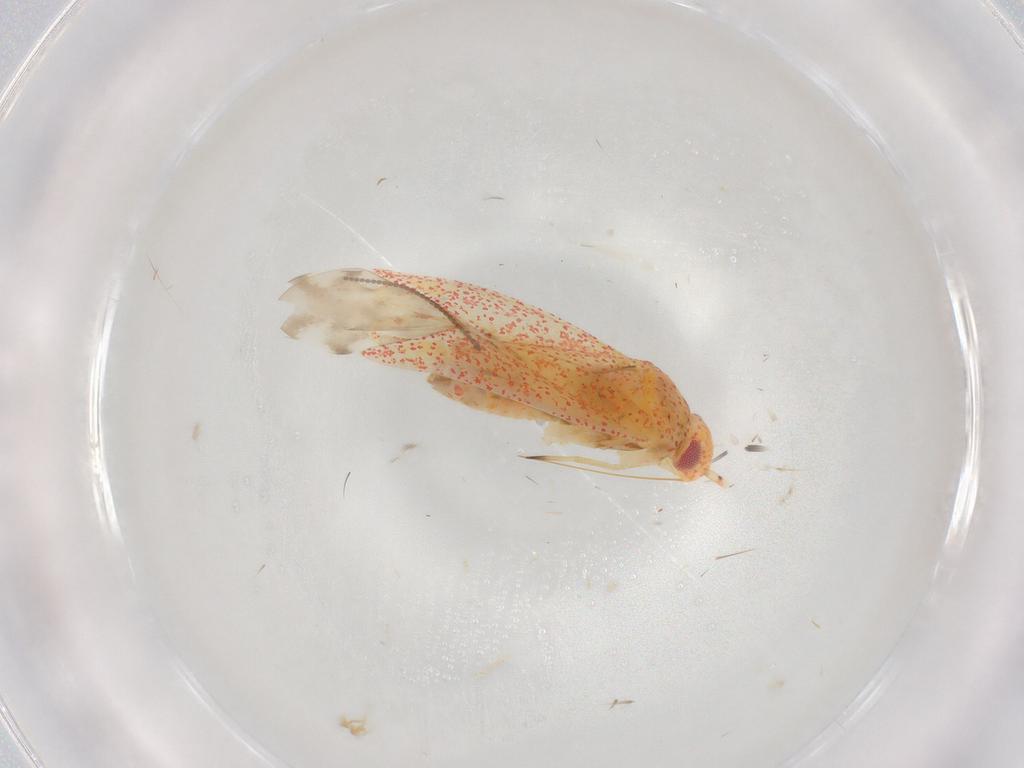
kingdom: Animalia
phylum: Arthropoda
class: Insecta
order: Hemiptera
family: Miridae
